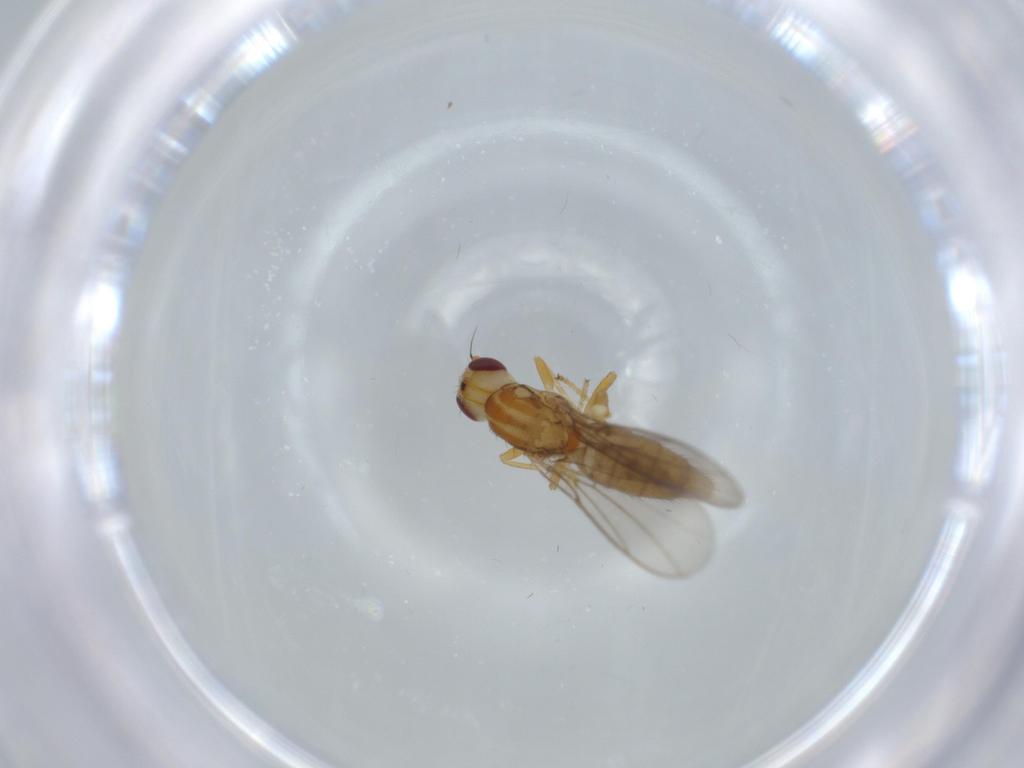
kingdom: Animalia
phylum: Arthropoda
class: Insecta
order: Diptera
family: Chloropidae
